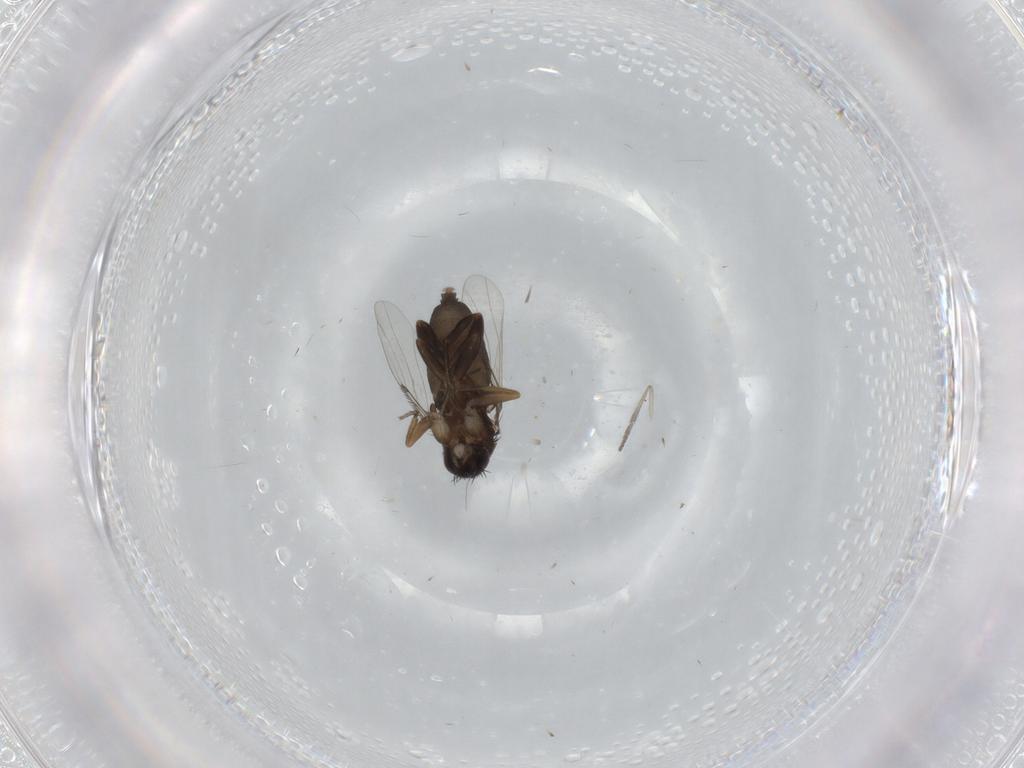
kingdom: Animalia
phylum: Arthropoda
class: Insecta
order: Diptera
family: Phoridae
